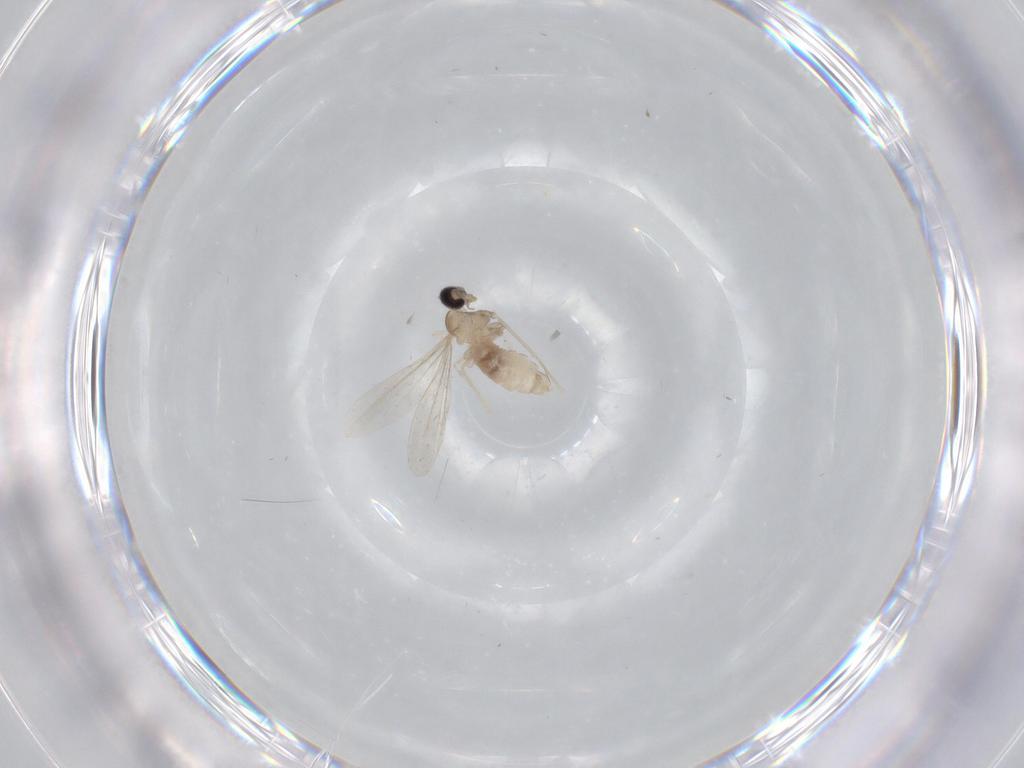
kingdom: Animalia
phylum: Arthropoda
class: Insecta
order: Diptera
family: Cecidomyiidae
